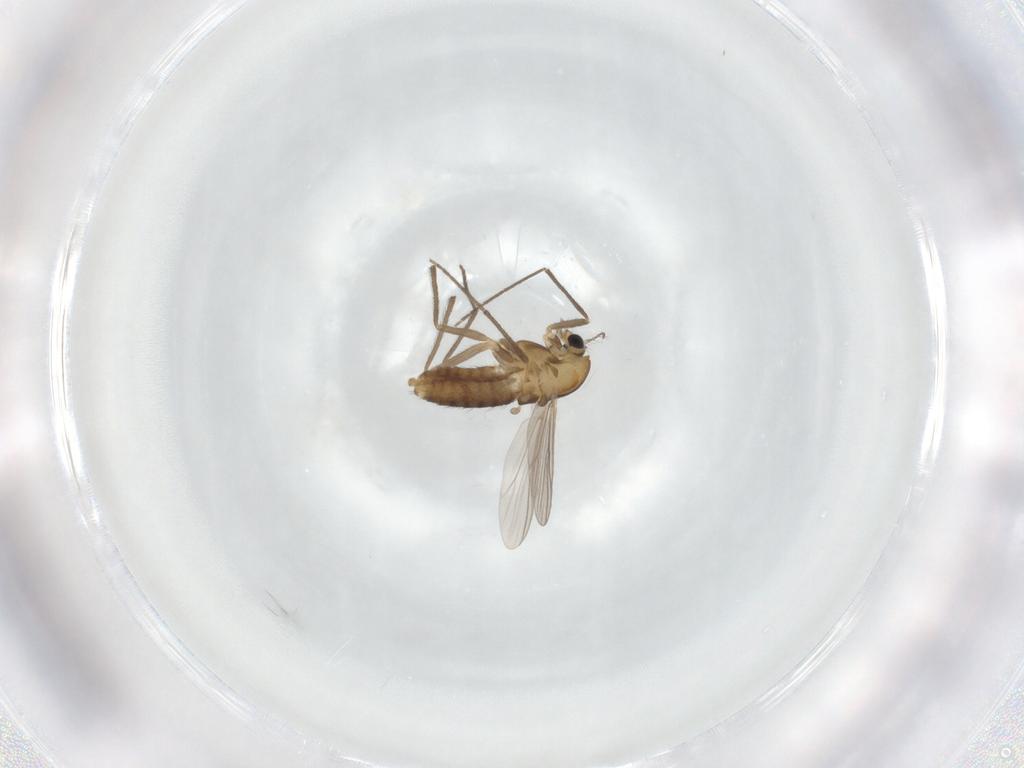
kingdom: Animalia
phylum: Arthropoda
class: Insecta
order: Diptera
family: Chironomidae
